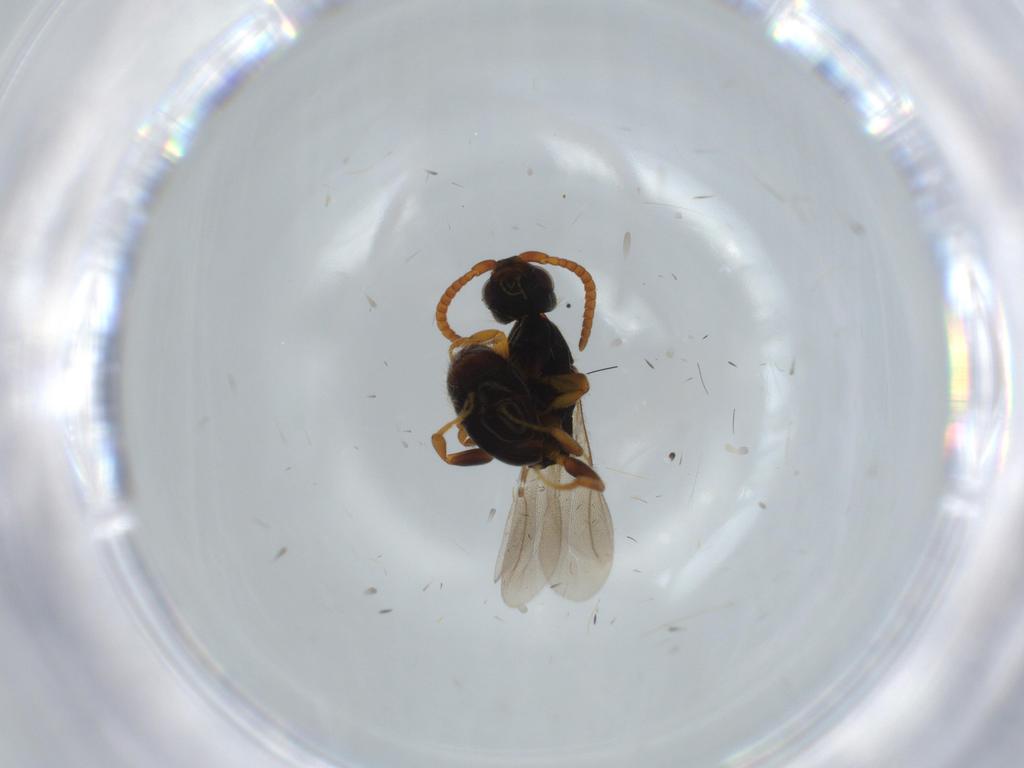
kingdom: Animalia
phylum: Arthropoda
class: Insecta
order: Hymenoptera
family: Bethylidae
